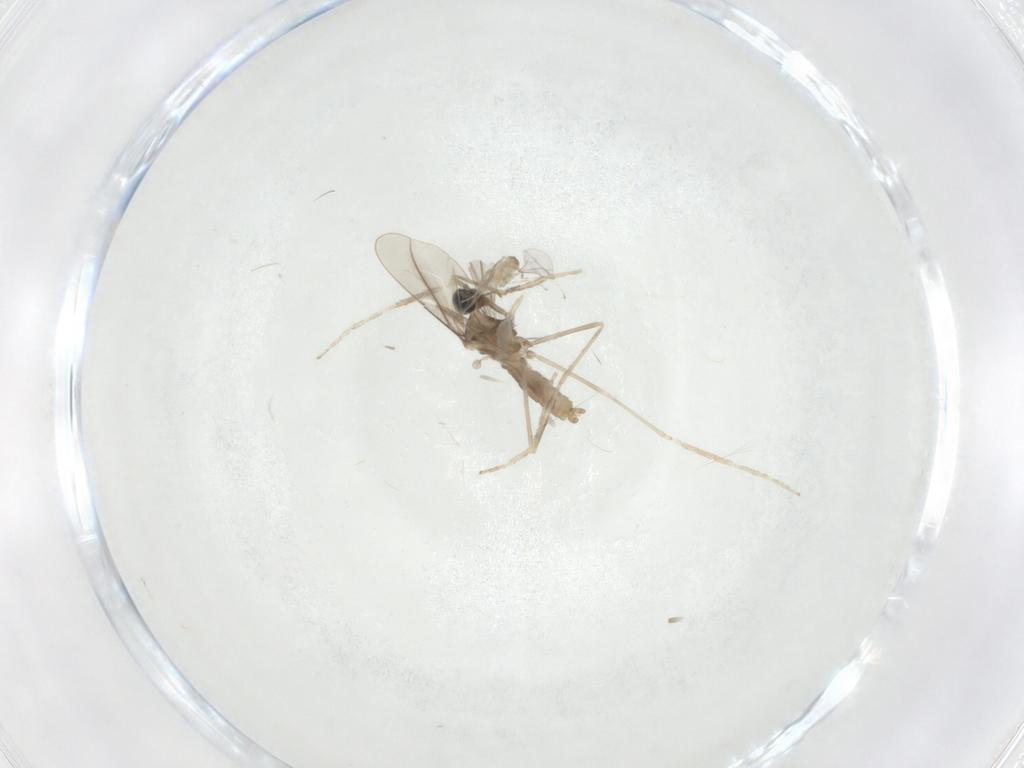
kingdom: Animalia
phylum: Arthropoda
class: Insecta
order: Diptera
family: Cecidomyiidae
